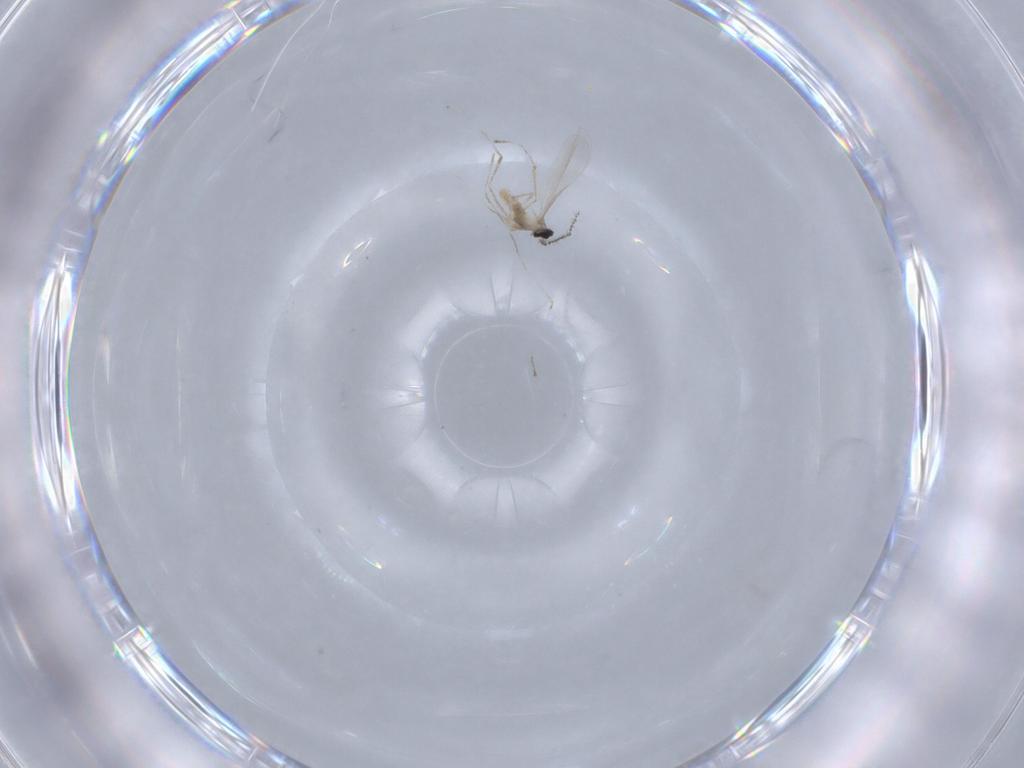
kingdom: Animalia
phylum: Arthropoda
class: Insecta
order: Diptera
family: Cecidomyiidae
